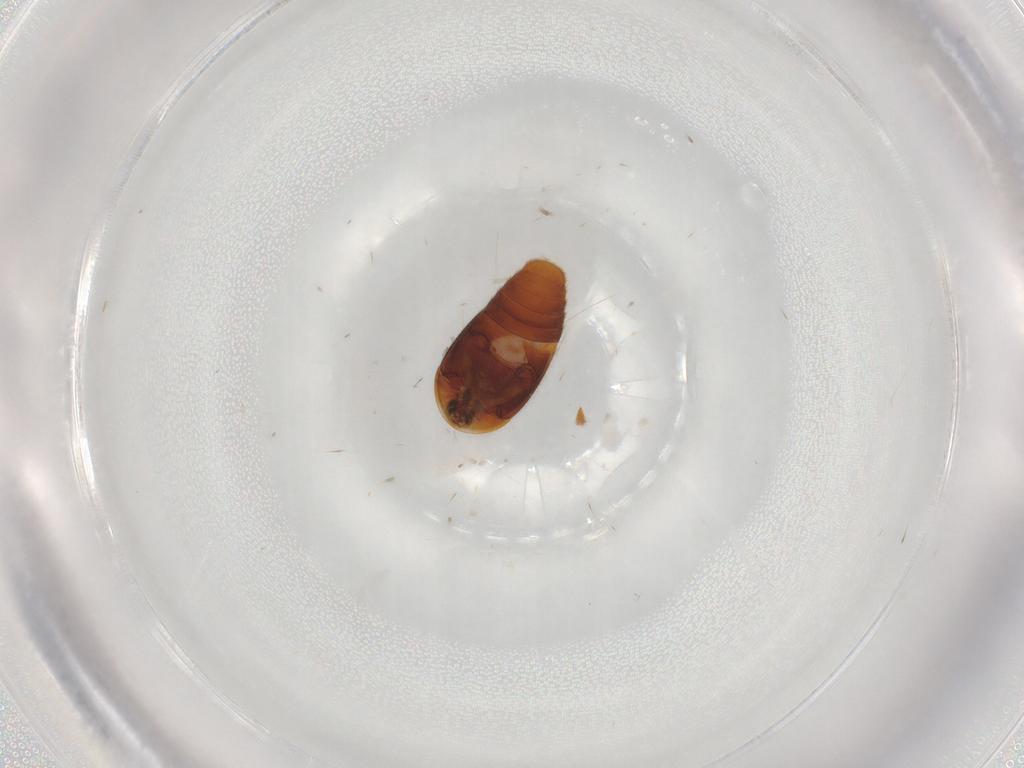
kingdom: Animalia
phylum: Arthropoda
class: Insecta
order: Coleoptera
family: Corylophidae
